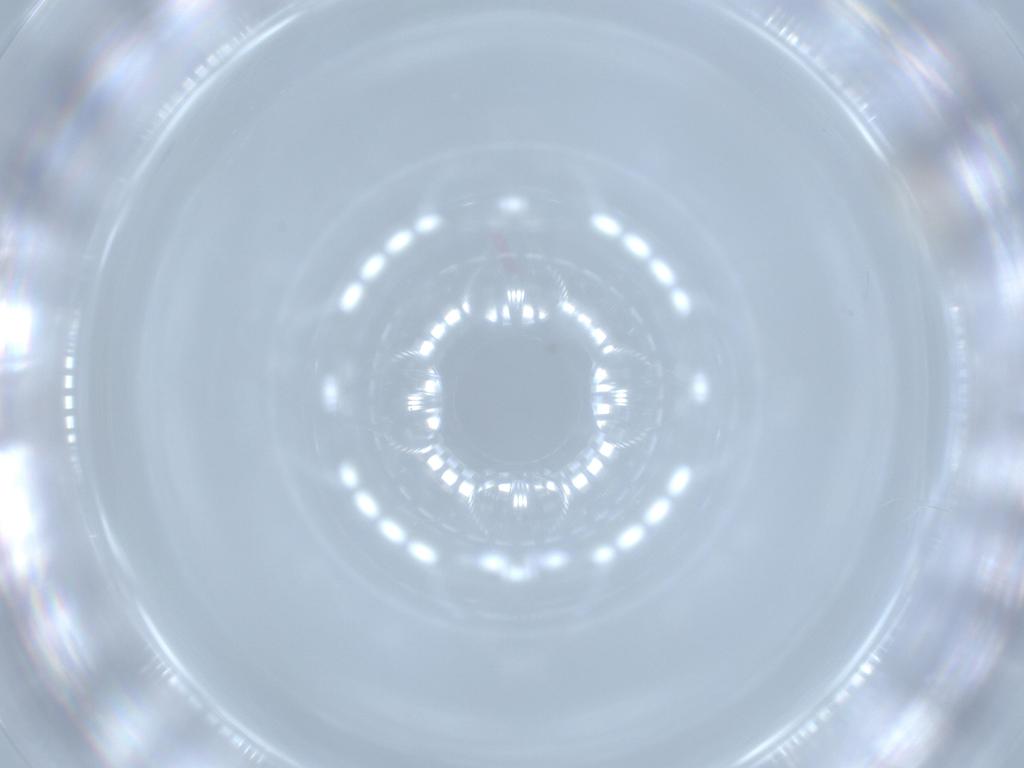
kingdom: Animalia
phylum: Arthropoda
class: Insecta
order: Diptera
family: Cecidomyiidae
